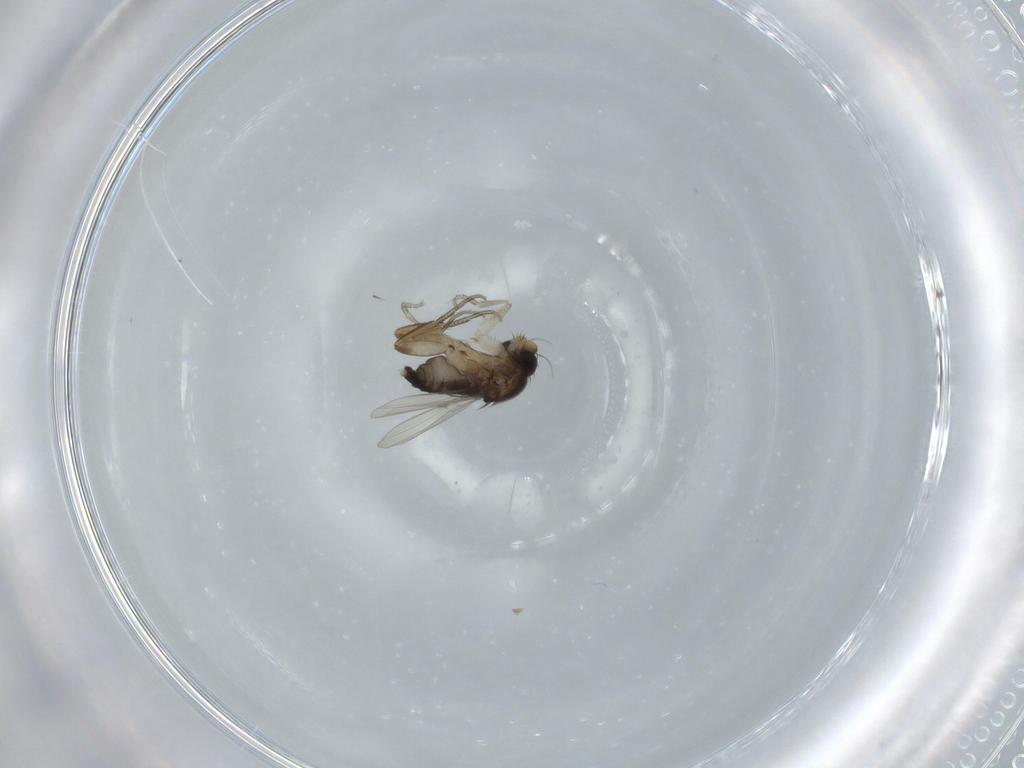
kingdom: Animalia
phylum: Arthropoda
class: Insecta
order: Diptera
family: Phoridae
